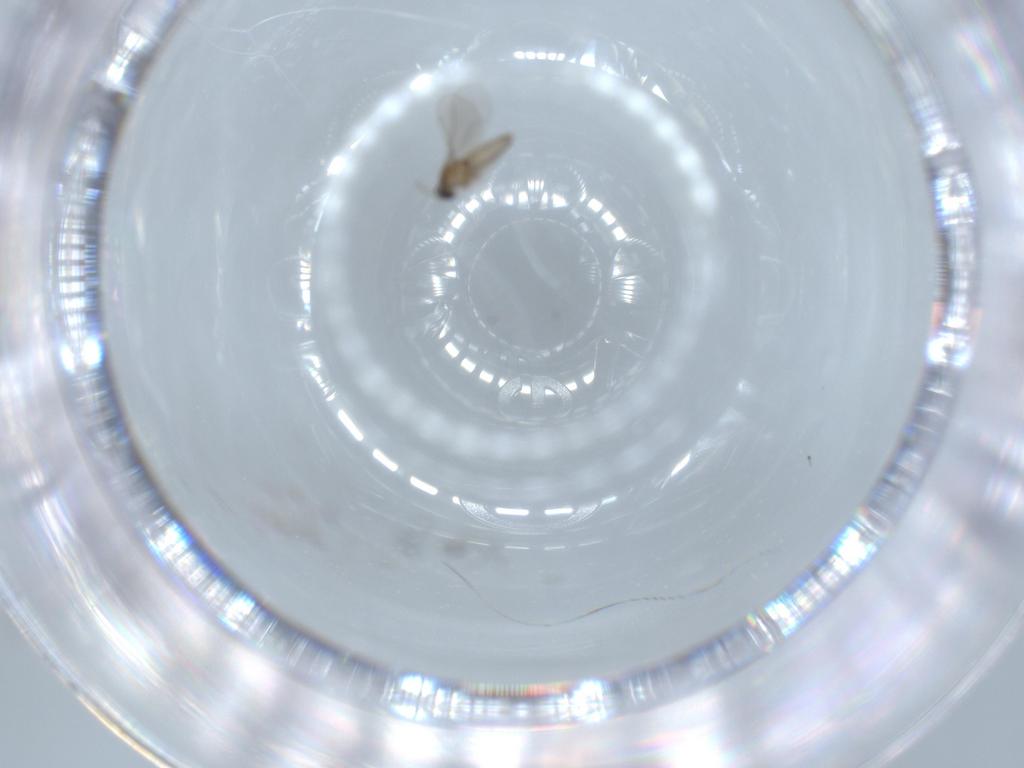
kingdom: Animalia
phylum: Arthropoda
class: Insecta
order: Diptera
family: Cecidomyiidae
